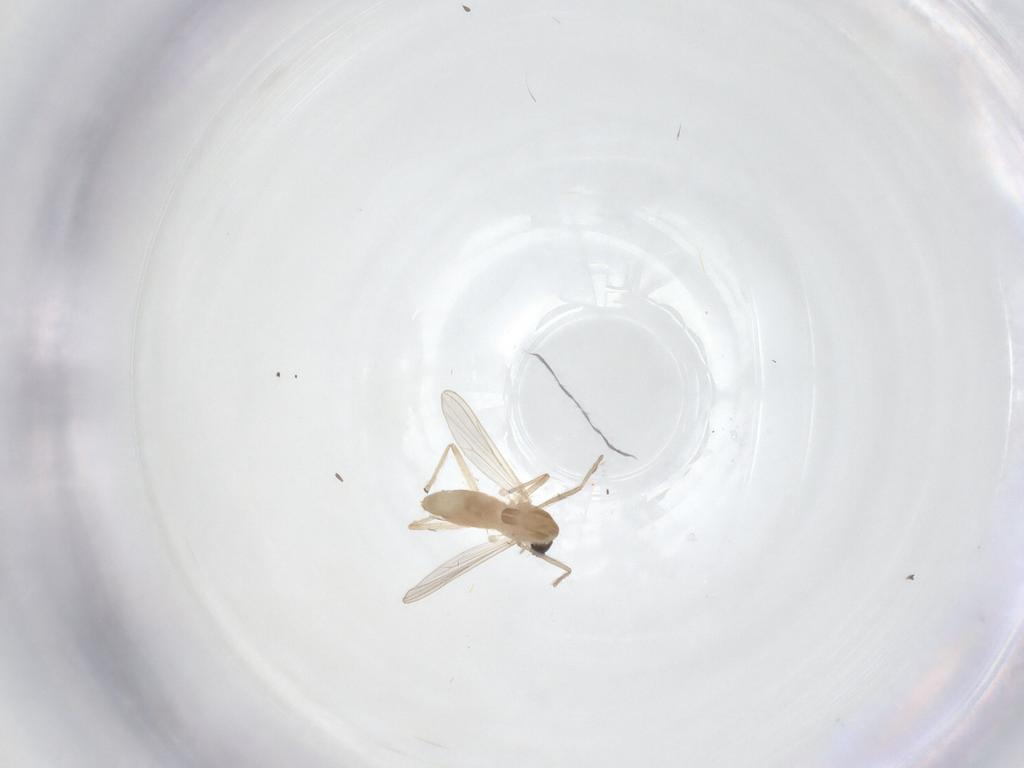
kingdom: Animalia
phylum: Arthropoda
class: Insecta
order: Diptera
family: Chironomidae
